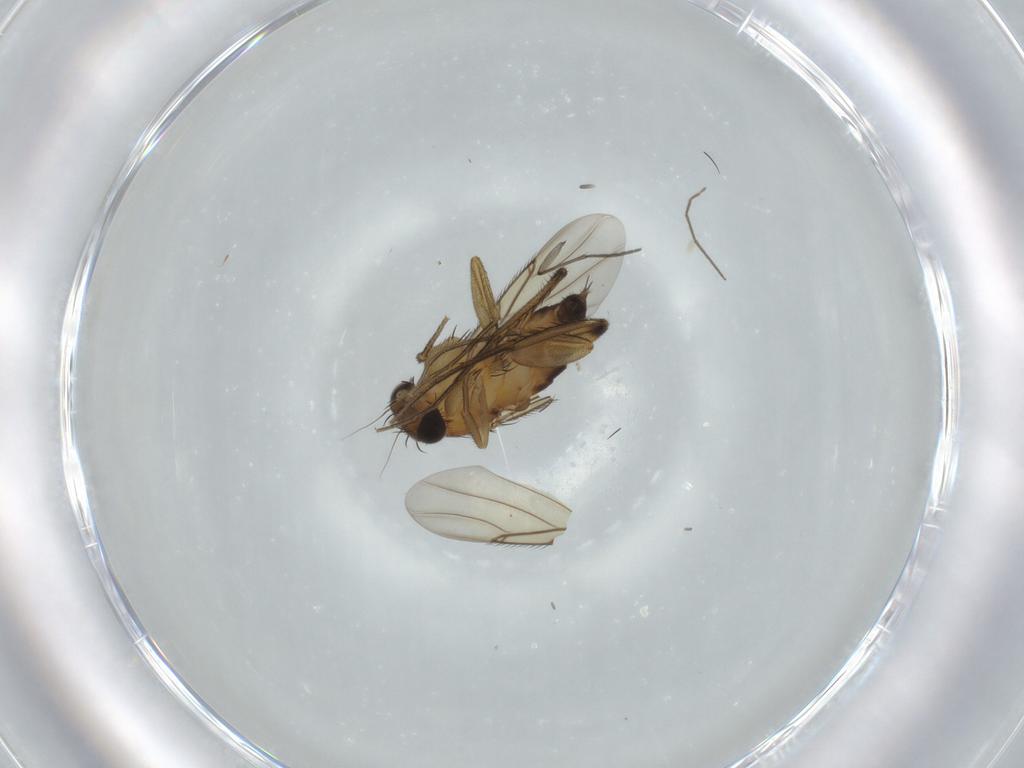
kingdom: Animalia
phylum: Arthropoda
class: Insecta
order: Diptera
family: Phoridae
